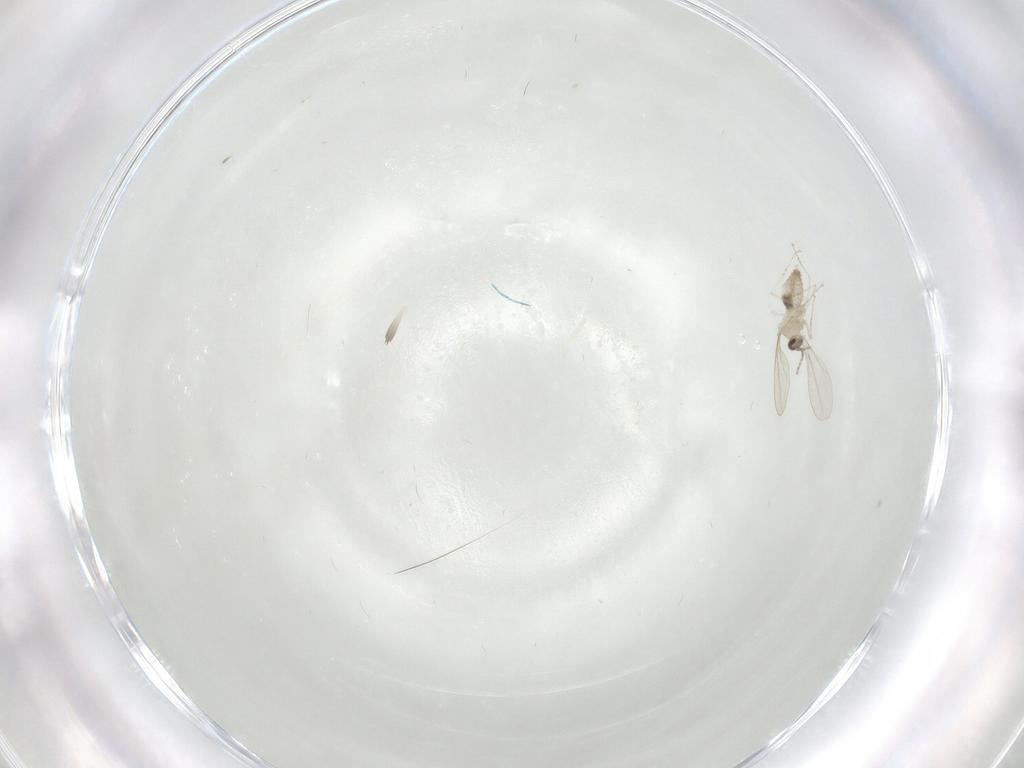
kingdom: Animalia
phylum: Arthropoda
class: Insecta
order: Diptera
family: Cecidomyiidae
